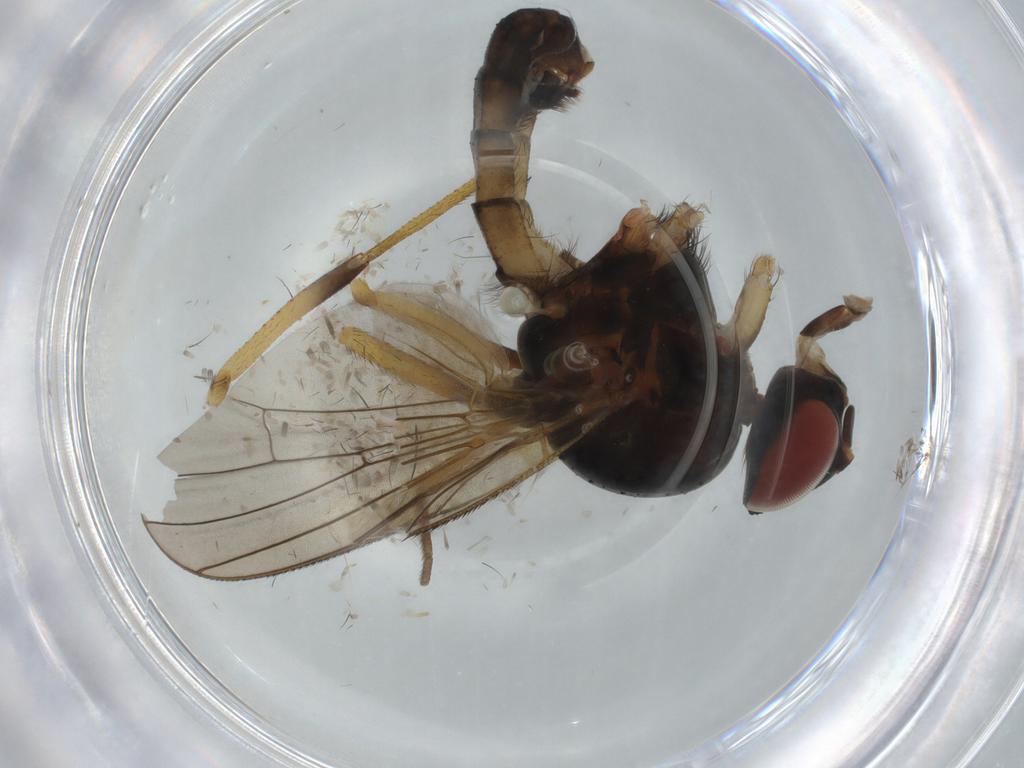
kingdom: Animalia
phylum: Arthropoda
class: Insecta
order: Diptera
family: Anthomyiidae
